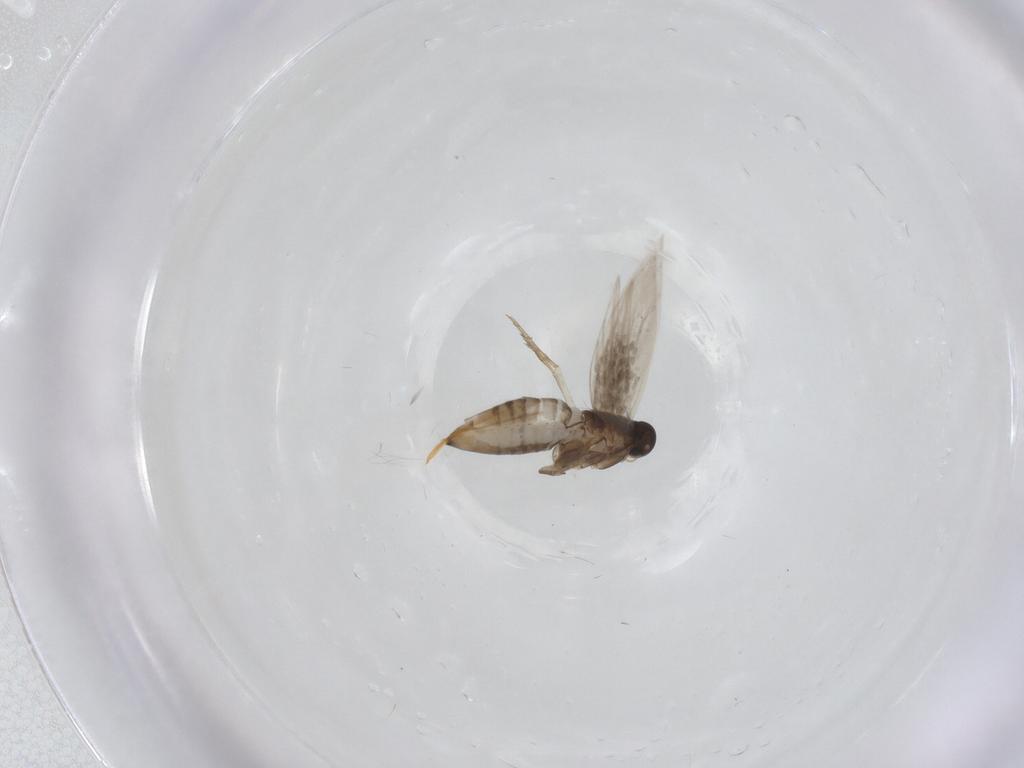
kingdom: Animalia
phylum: Arthropoda
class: Insecta
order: Lepidoptera
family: Heliozelidae
